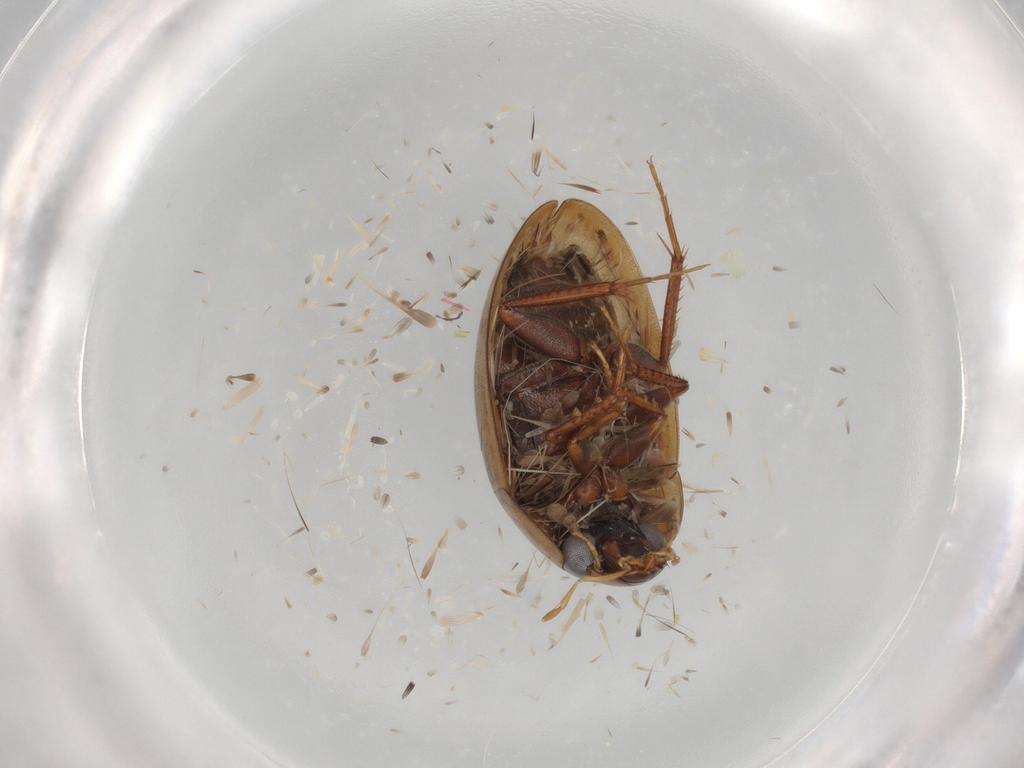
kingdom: Animalia
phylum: Arthropoda
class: Insecta
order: Coleoptera
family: Hydrophilidae
